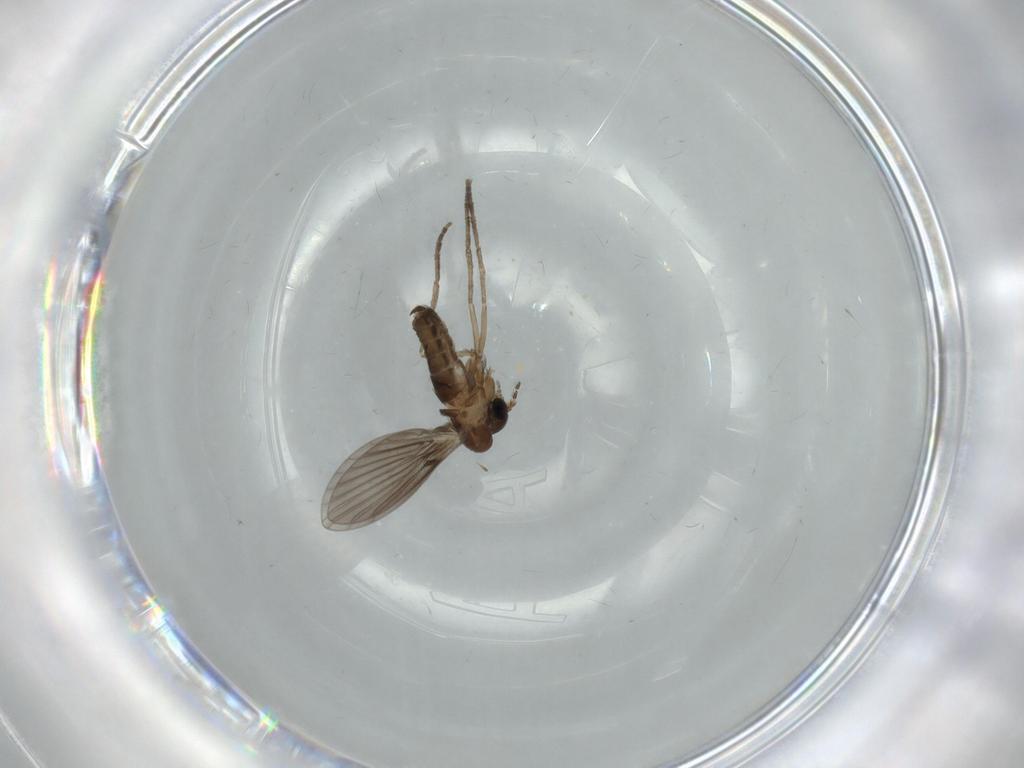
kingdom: Animalia
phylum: Arthropoda
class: Insecta
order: Diptera
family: Psychodidae
